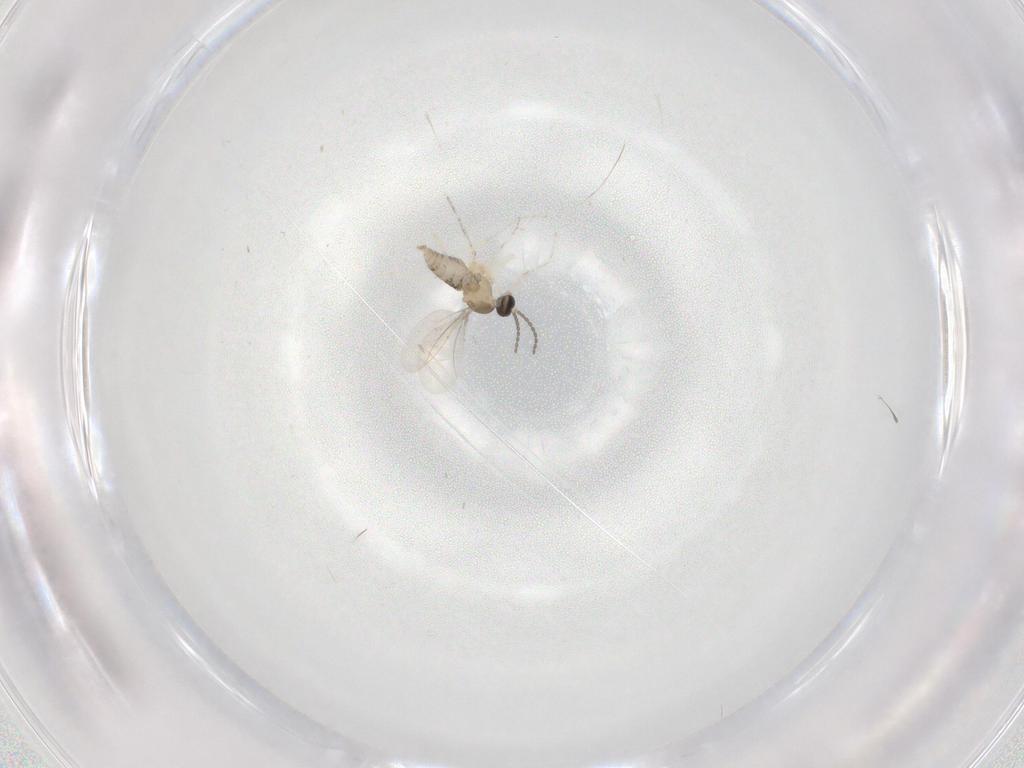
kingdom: Animalia
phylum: Arthropoda
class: Insecta
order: Diptera
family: Cecidomyiidae
